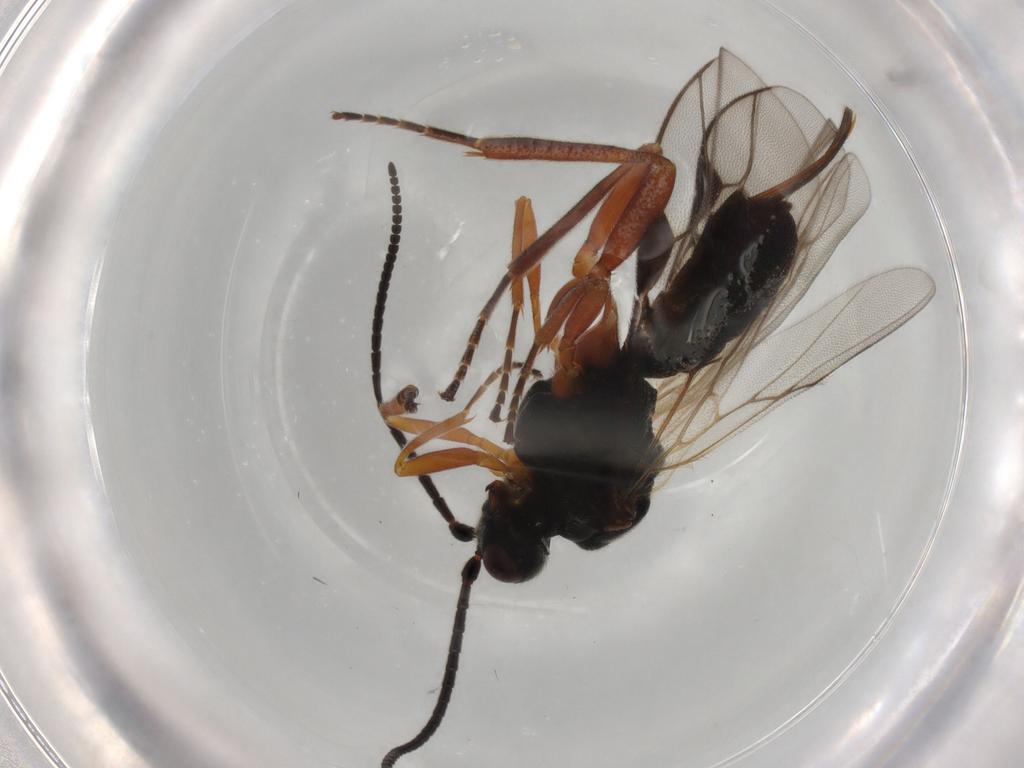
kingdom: Animalia
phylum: Arthropoda
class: Insecta
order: Hymenoptera
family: Braconidae
